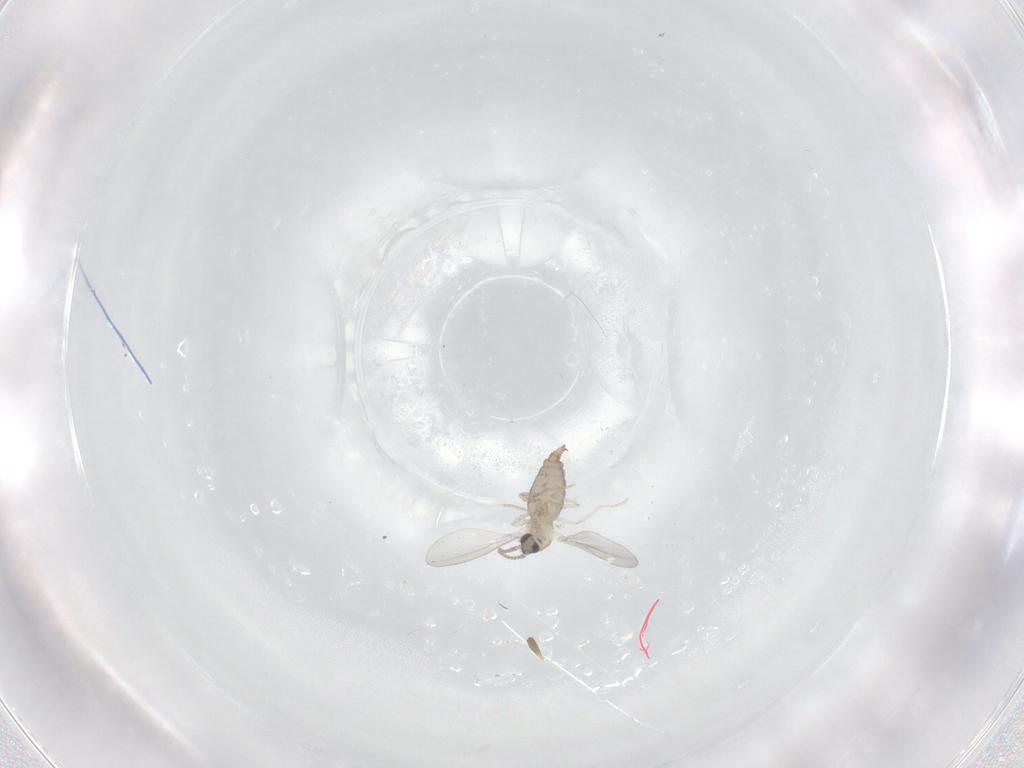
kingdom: Animalia
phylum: Arthropoda
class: Insecta
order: Diptera
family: Cecidomyiidae
